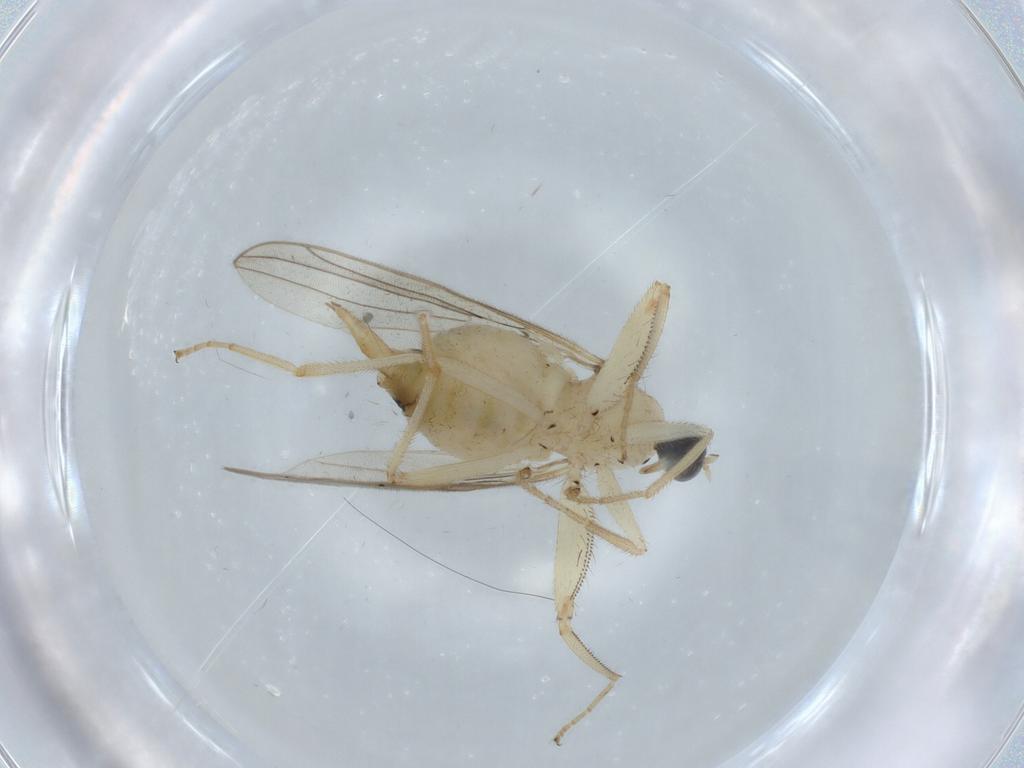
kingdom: Animalia
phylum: Arthropoda
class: Insecta
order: Diptera
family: Hybotidae
